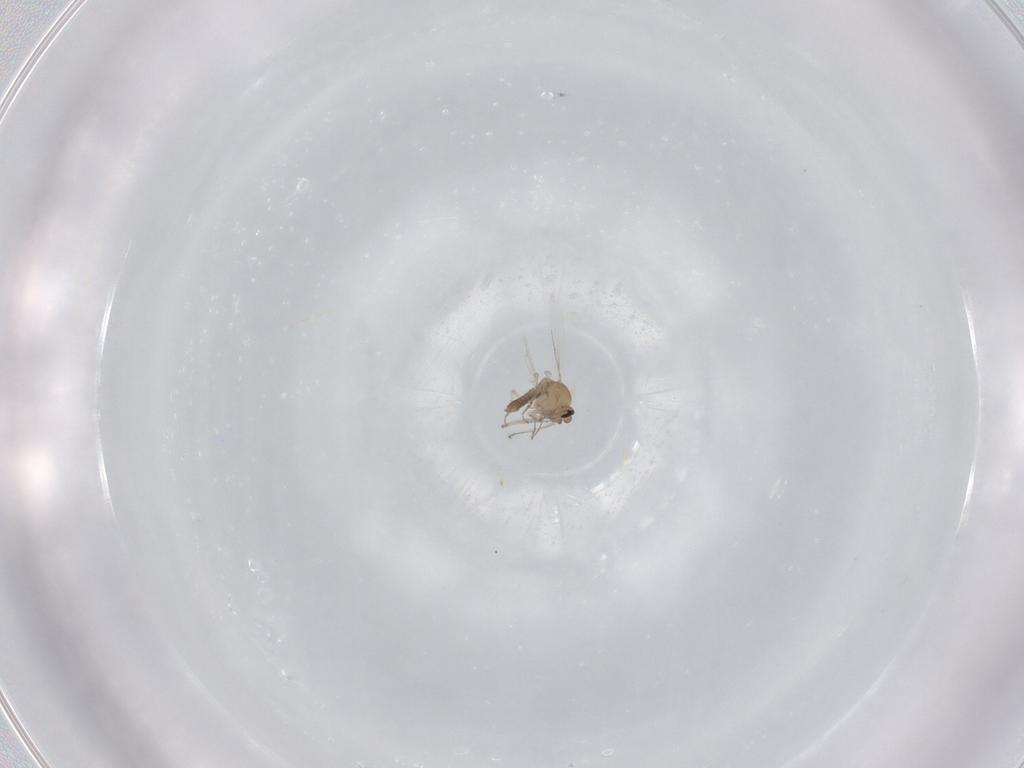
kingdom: Animalia
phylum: Arthropoda
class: Insecta
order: Diptera
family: Ceratopogonidae
